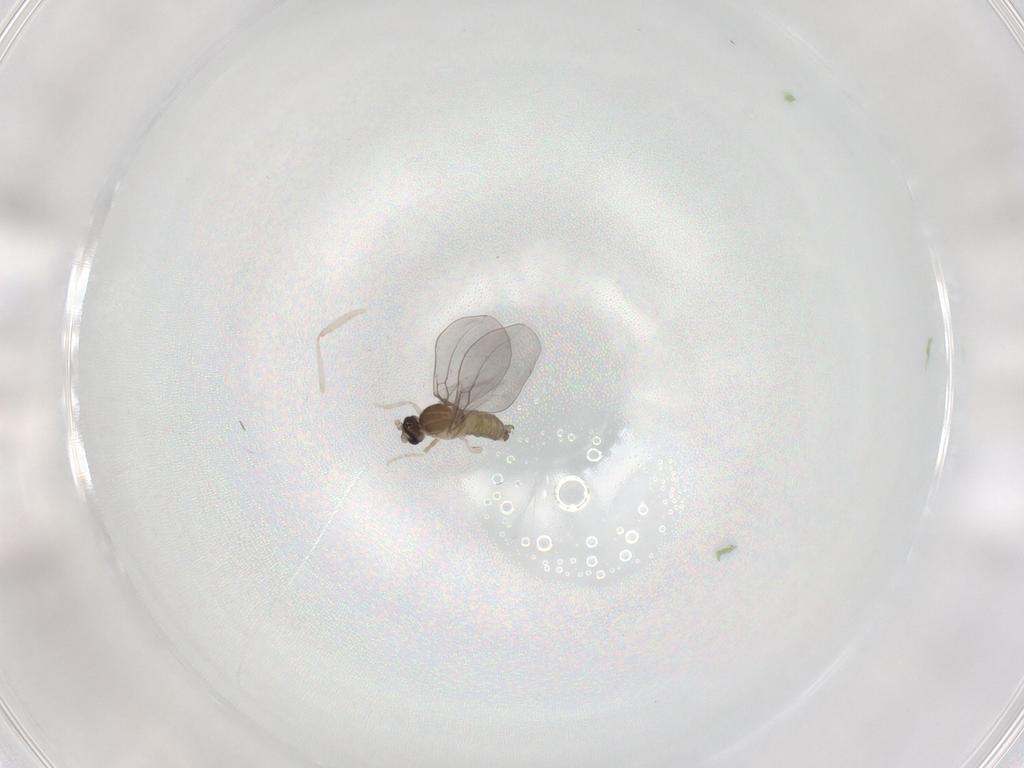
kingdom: Animalia
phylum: Arthropoda
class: Insecta
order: Diptera
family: Cecidomyiidae
